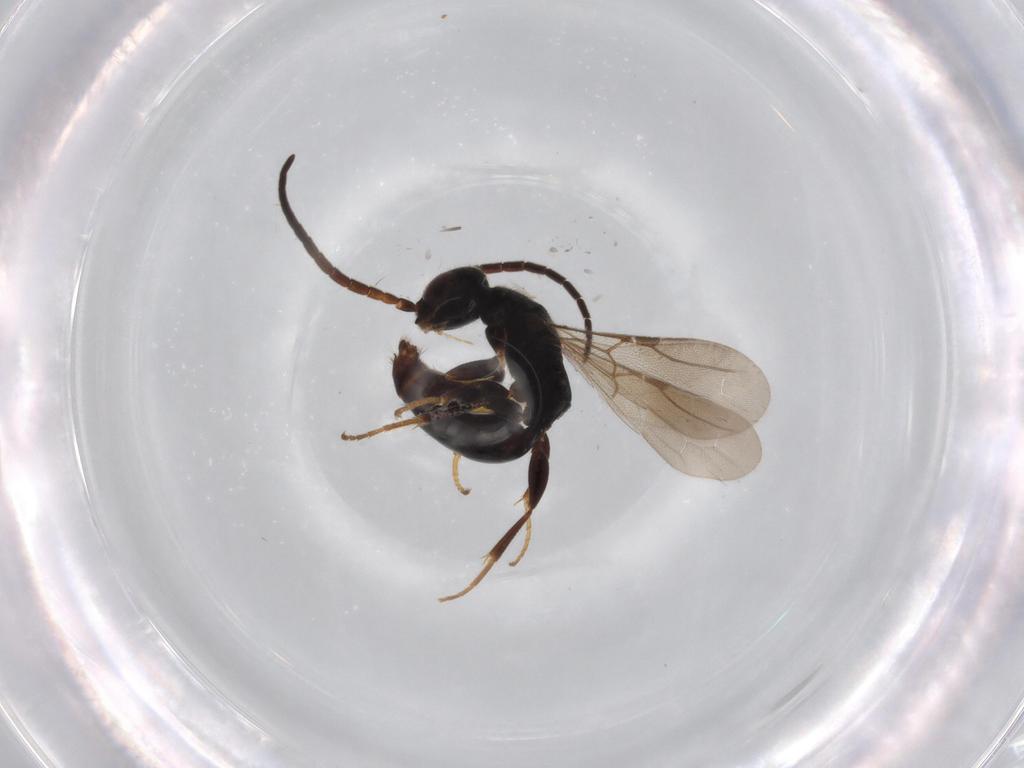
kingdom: Animalia
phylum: Arthropoda
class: Insecta
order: Hymenoptera
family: Bethylidae
